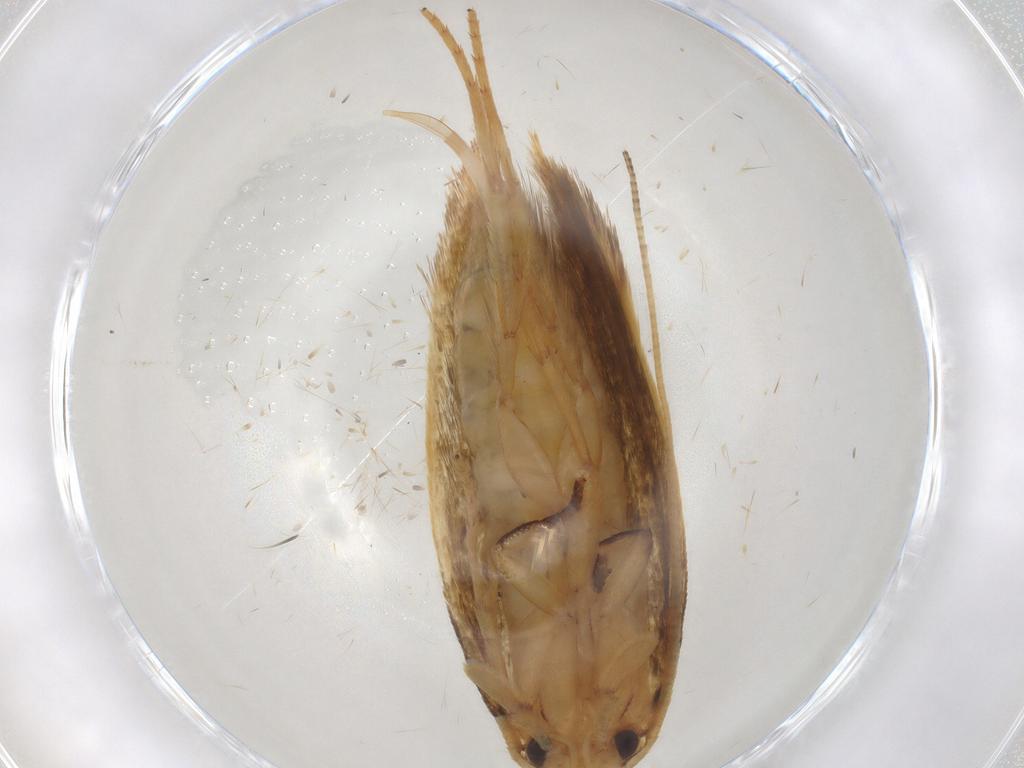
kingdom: Animalia
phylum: Arthropoda
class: Insecta
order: Lepidoptera
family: Tineidae
